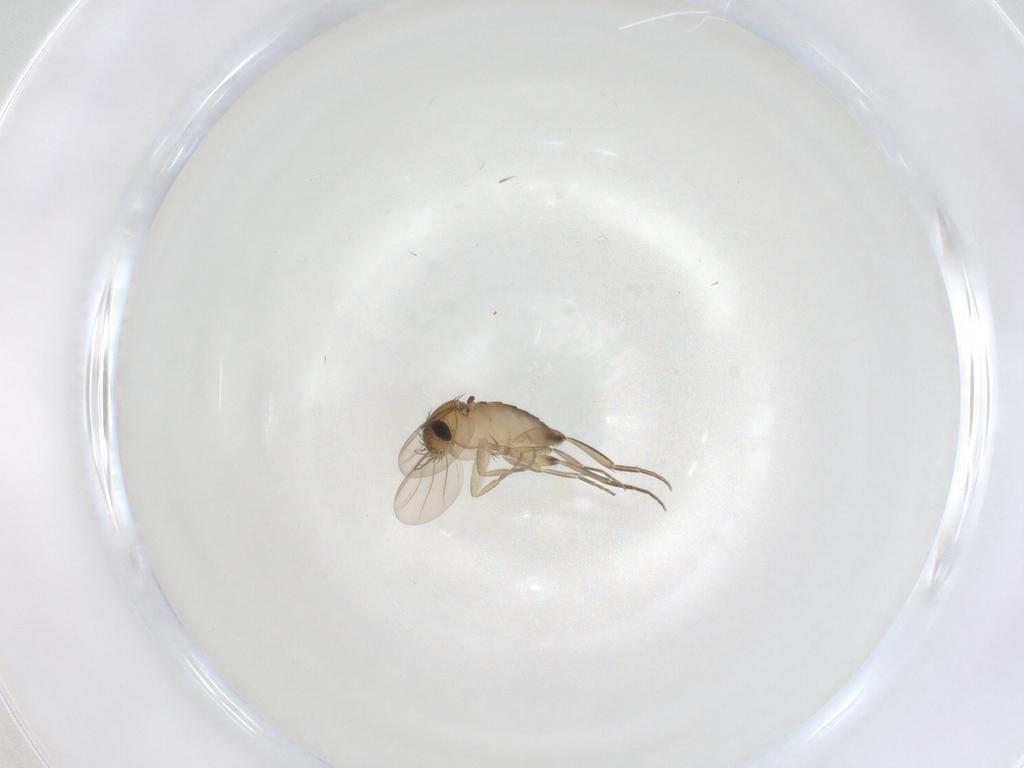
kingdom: Animalia
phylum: Arthropoda
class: Insecta
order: Diptera
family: Phoridae
